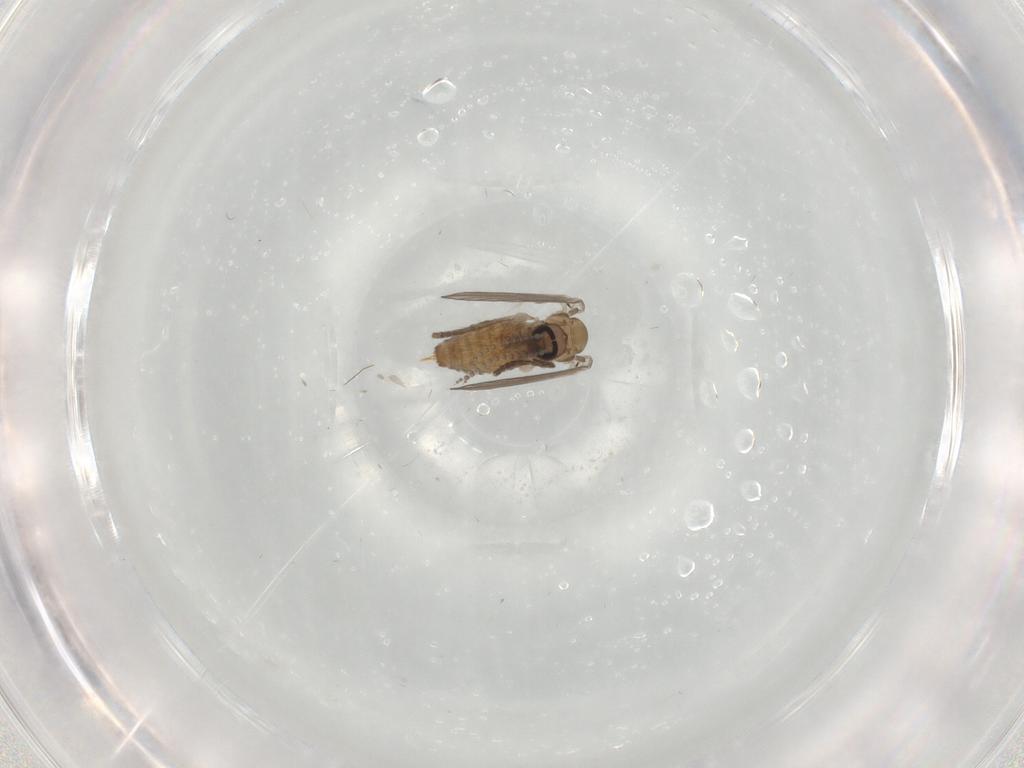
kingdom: Animalia
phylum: Arthropoda
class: Insecta
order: Diptera
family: Psychodidae
